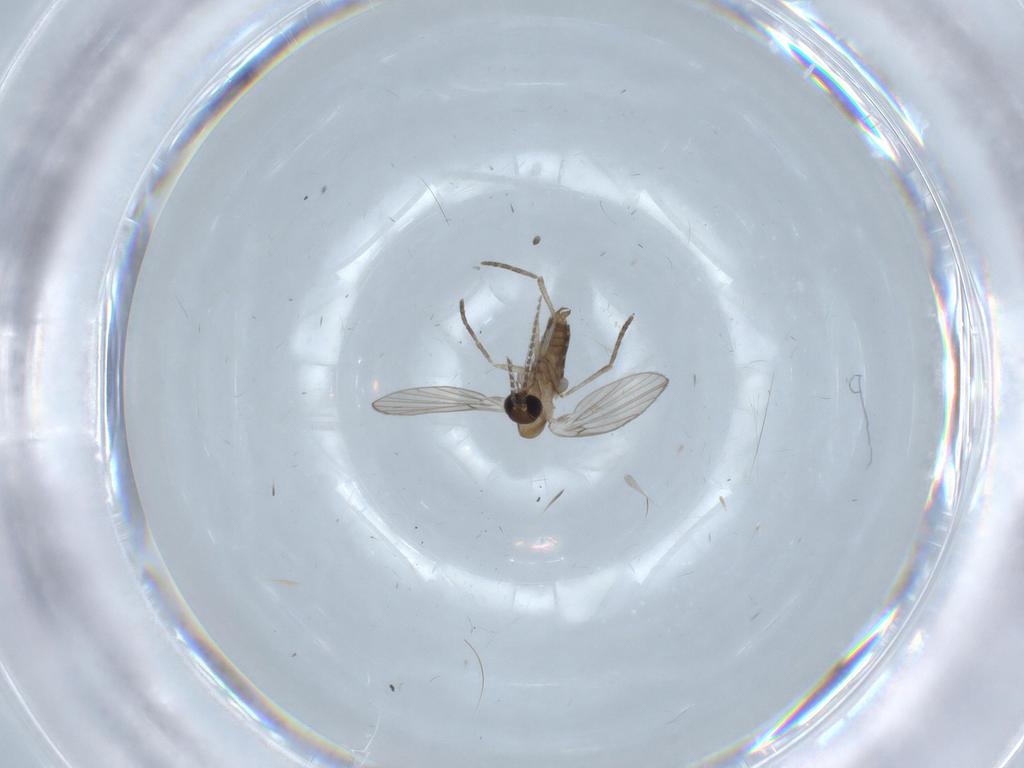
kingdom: Animalia
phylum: Arthropoda
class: Insecta
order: Diptera
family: Psychodidae
